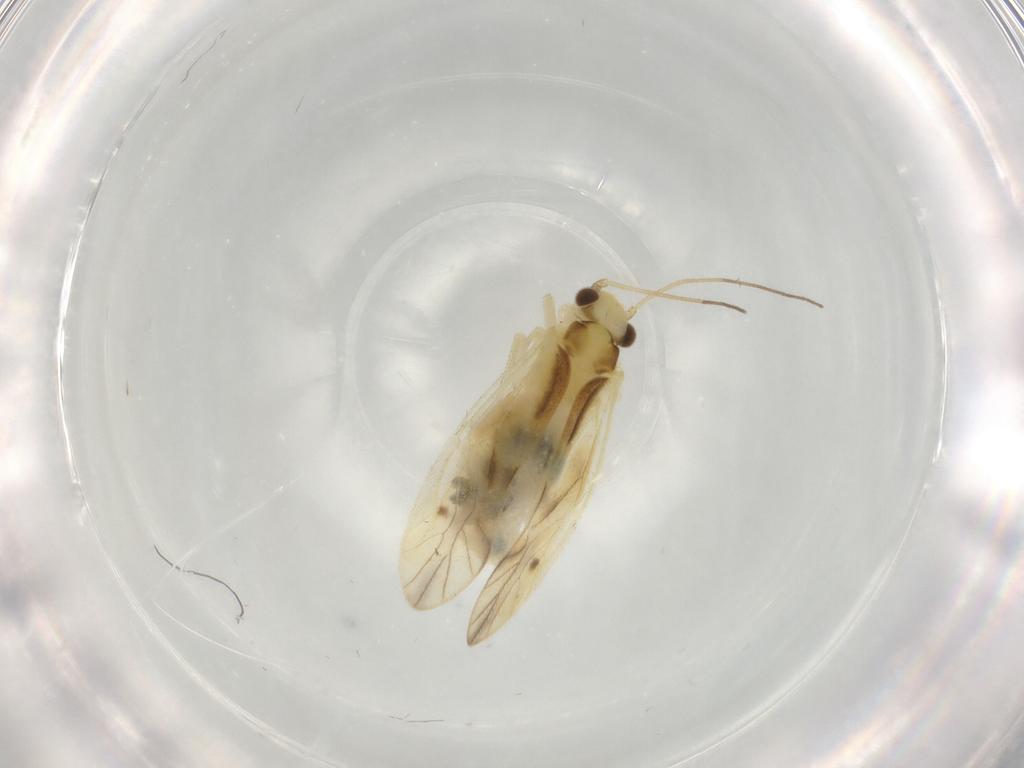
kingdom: Animalia
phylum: Arthropoda
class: Insecta
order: Psocodea
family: Caeciliusidae
